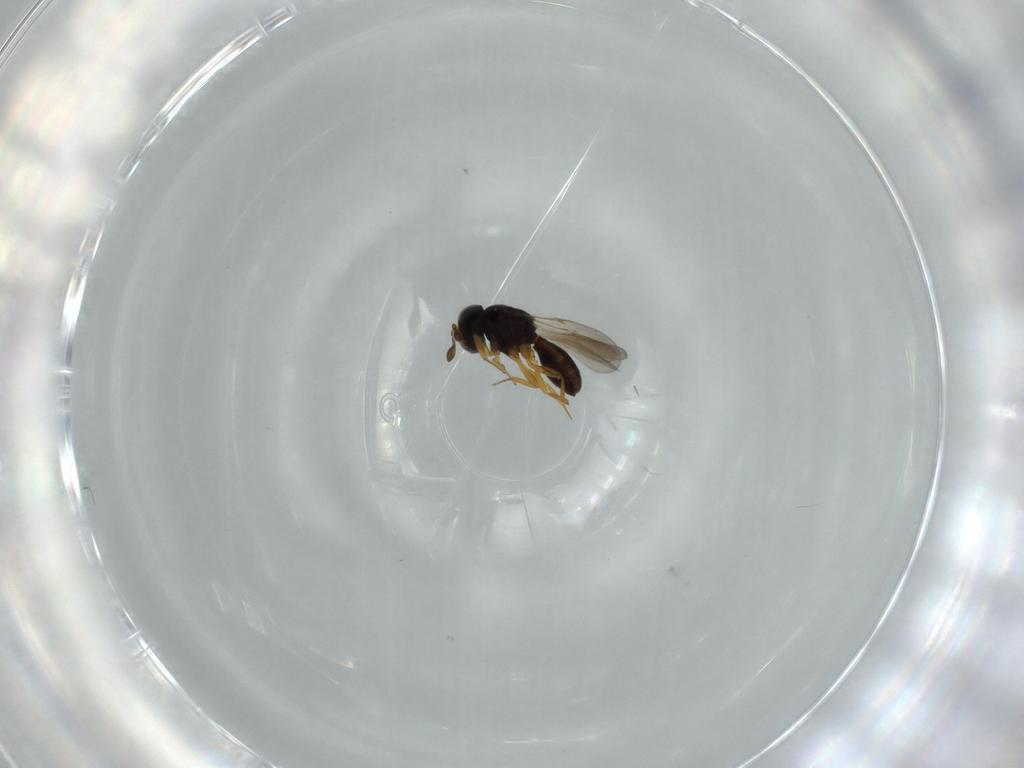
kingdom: Animalia
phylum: Arthropoda
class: Insecta
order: Hymenoptera
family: Scelionidae
